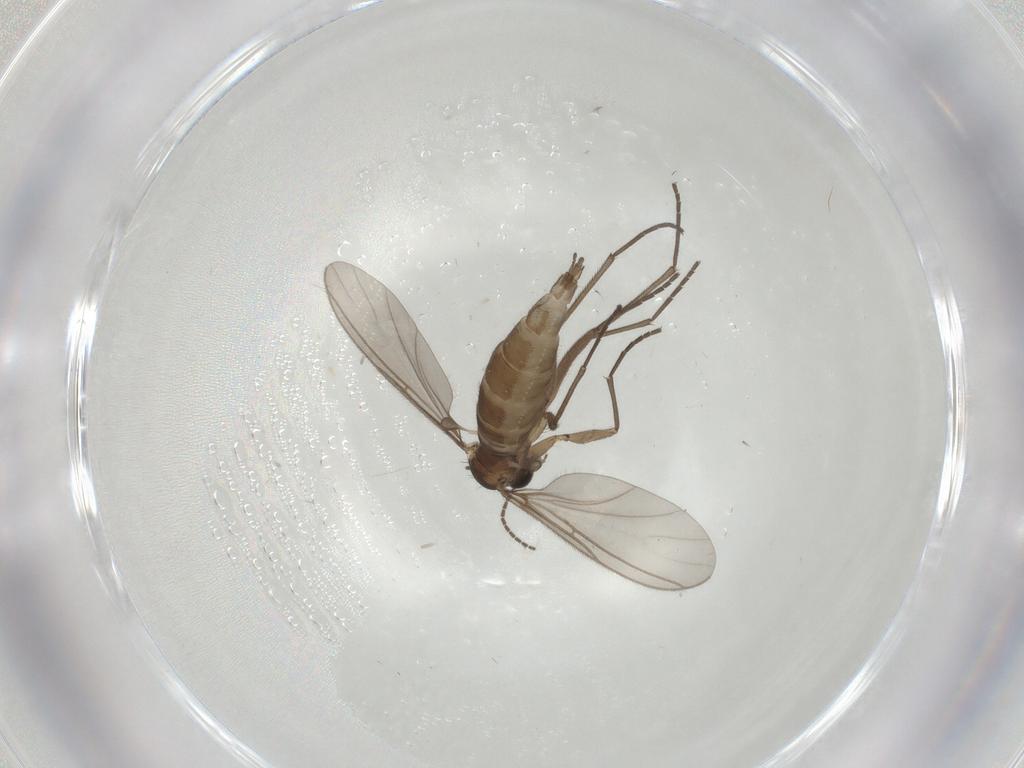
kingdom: Animalia
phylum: Arthropoda
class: Insecta
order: Diptera
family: Sciaridae
